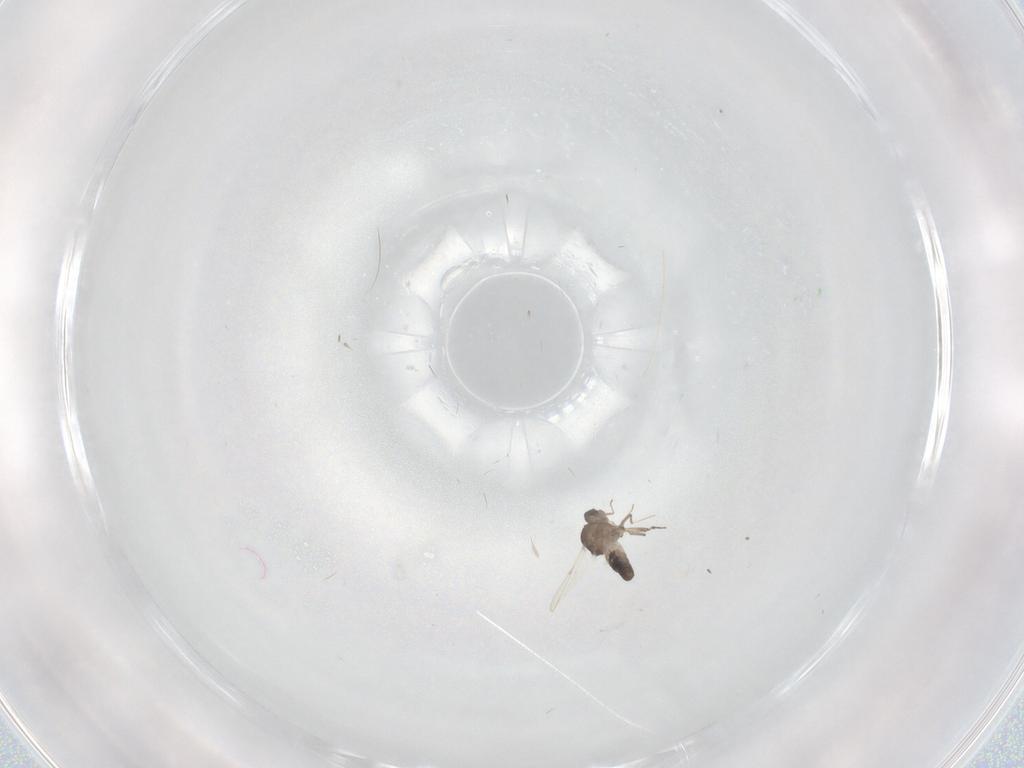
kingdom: Animalia
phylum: Arthropoda
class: Insecta
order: Diptera
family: Ceratopogonidae
